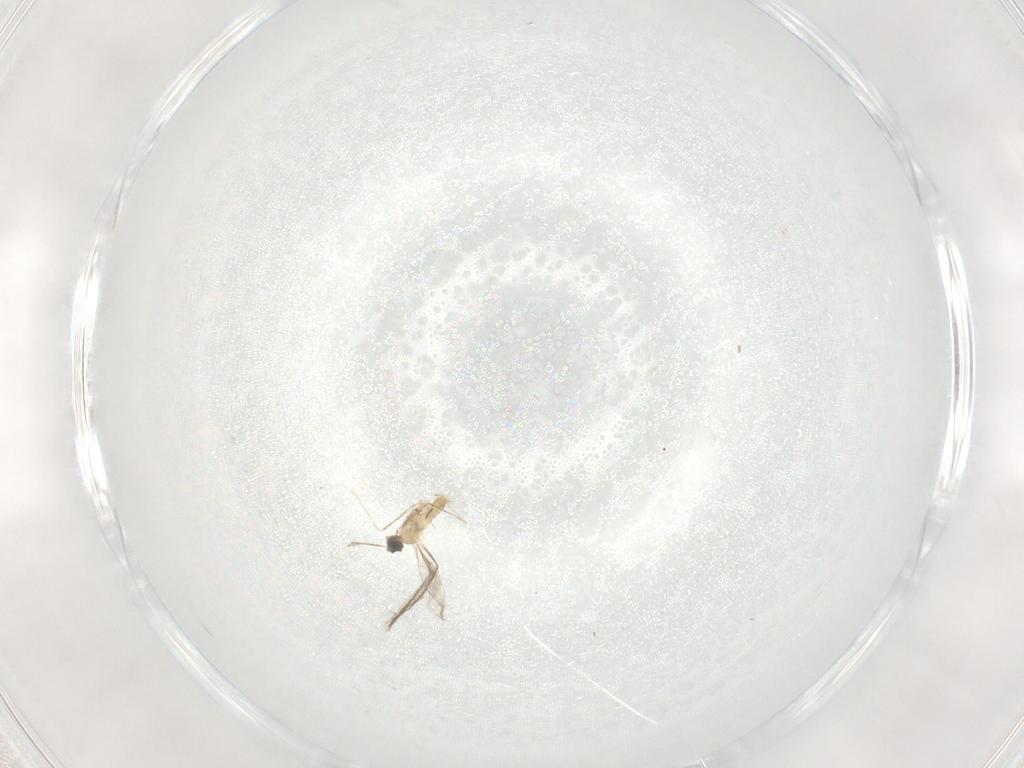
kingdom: Animalia
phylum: Arthropoda
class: Insecta
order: Diptera
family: Cecidomyiidae
